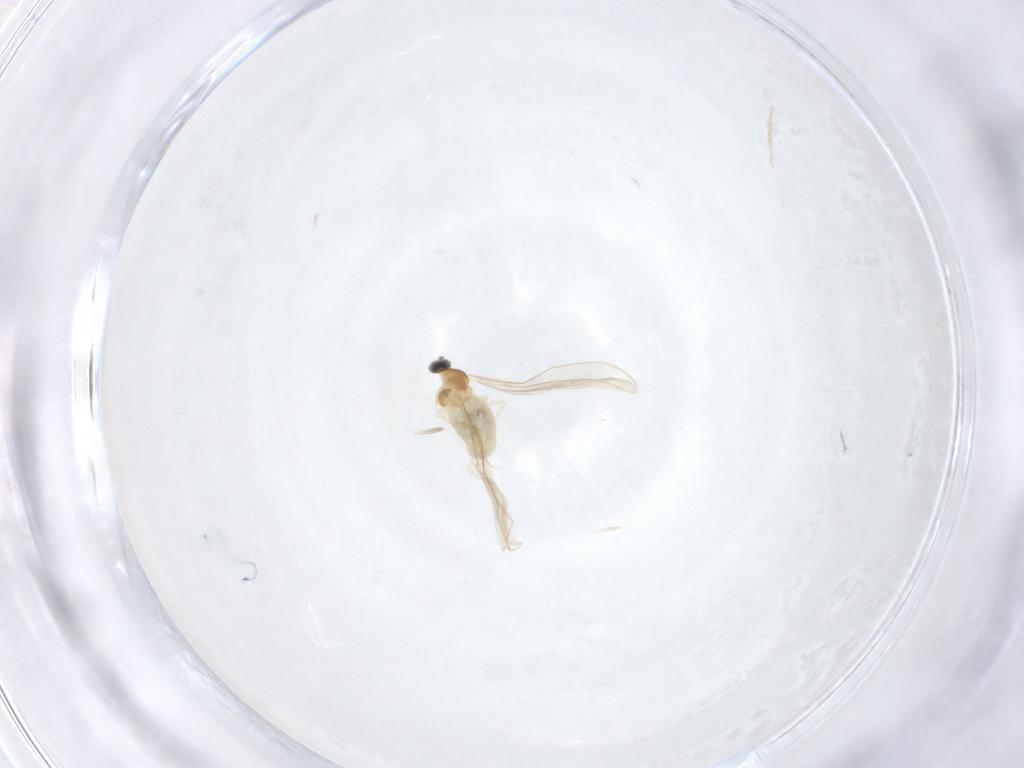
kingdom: Animalia
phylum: Arthropoda
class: Insecta
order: Diptera
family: Cecidomyiidae
